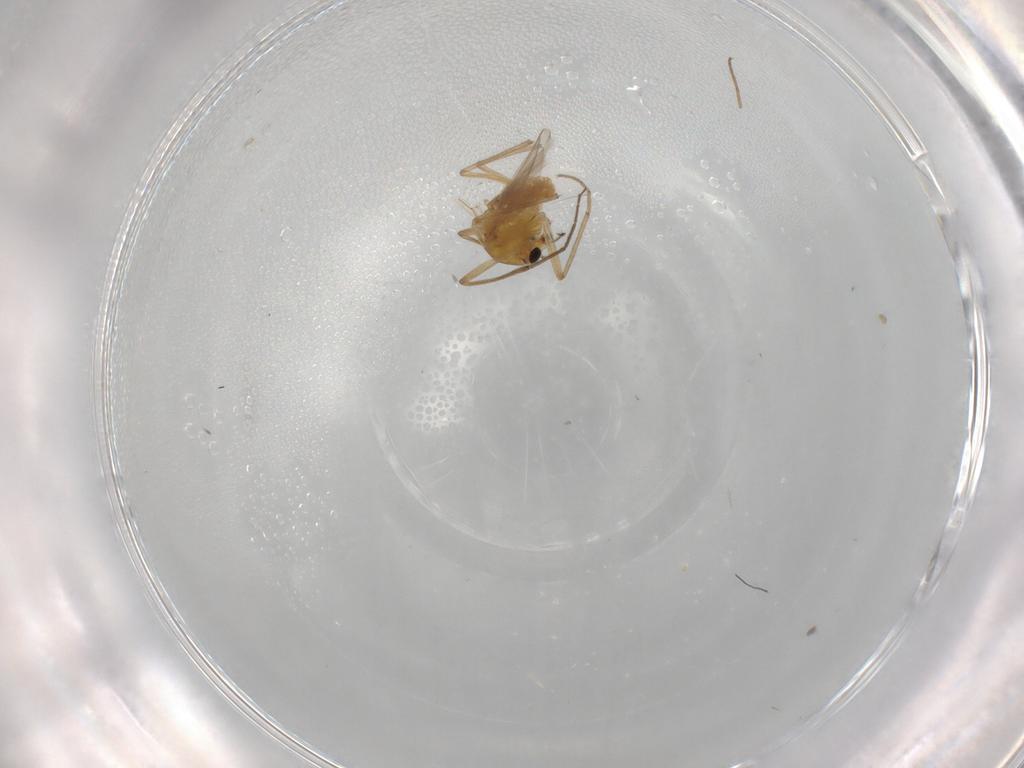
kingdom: Animalia
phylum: Arthropoda
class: Insecta
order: Diptera
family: Chironomidae
